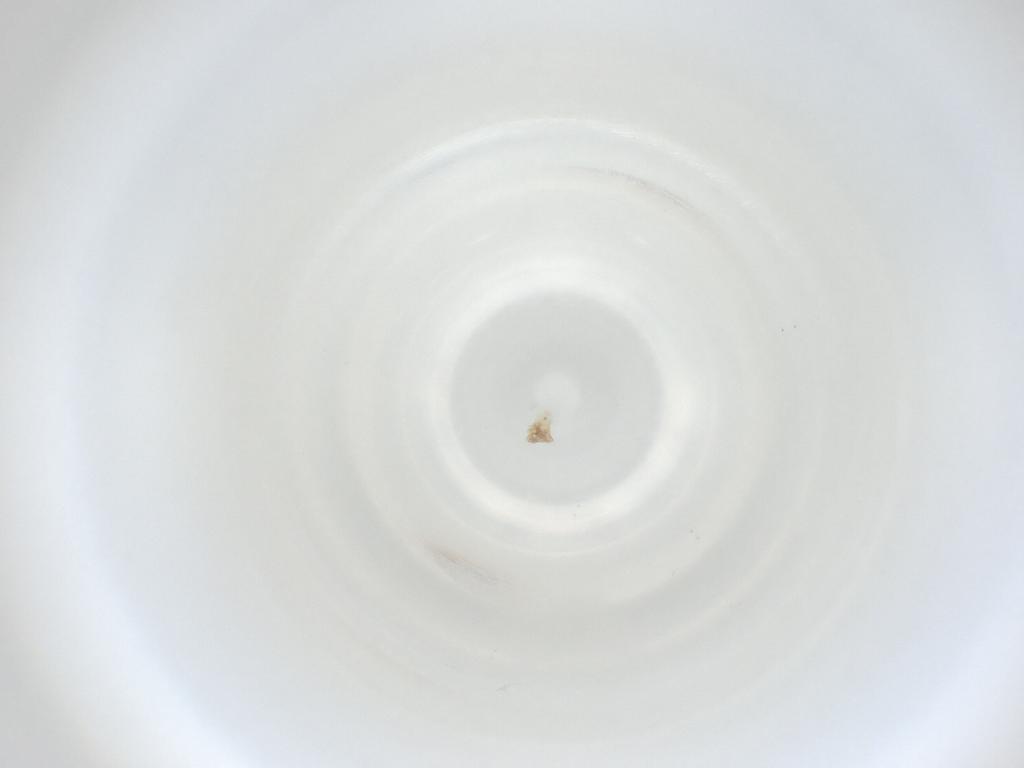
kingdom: Animalia
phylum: Arthropoda
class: Insecta
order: Diptera
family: Cecidomyiidae
